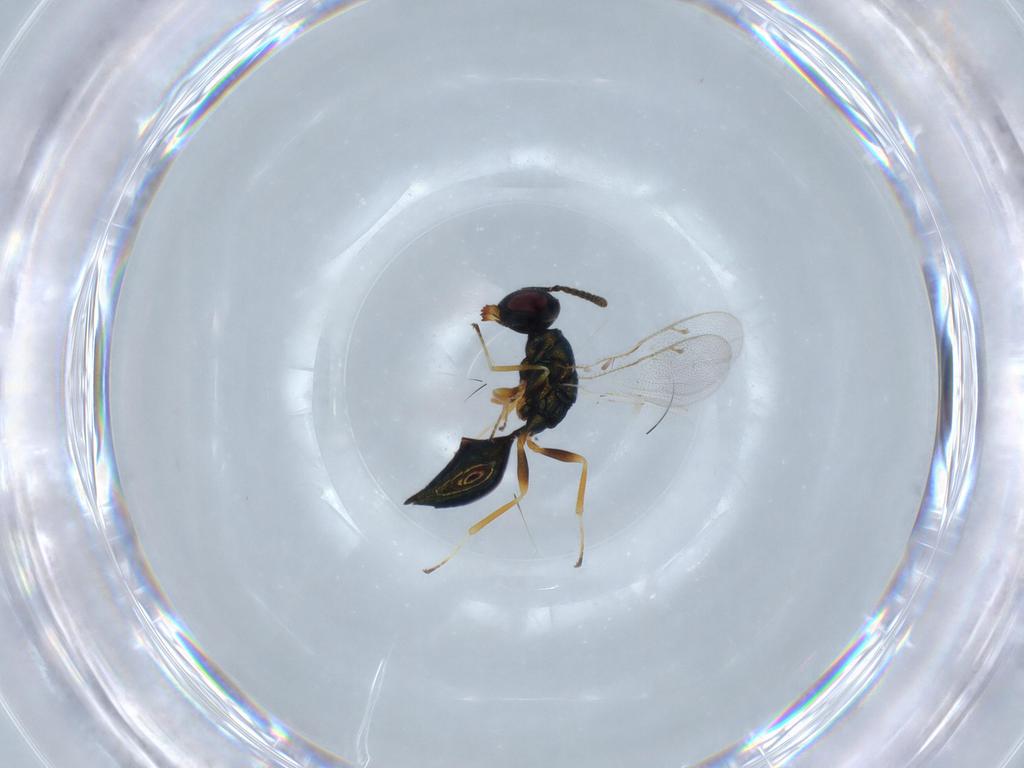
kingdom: Animalia
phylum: Arthropoda
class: Insecta
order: Hymenoptera
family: Pteromalidae
